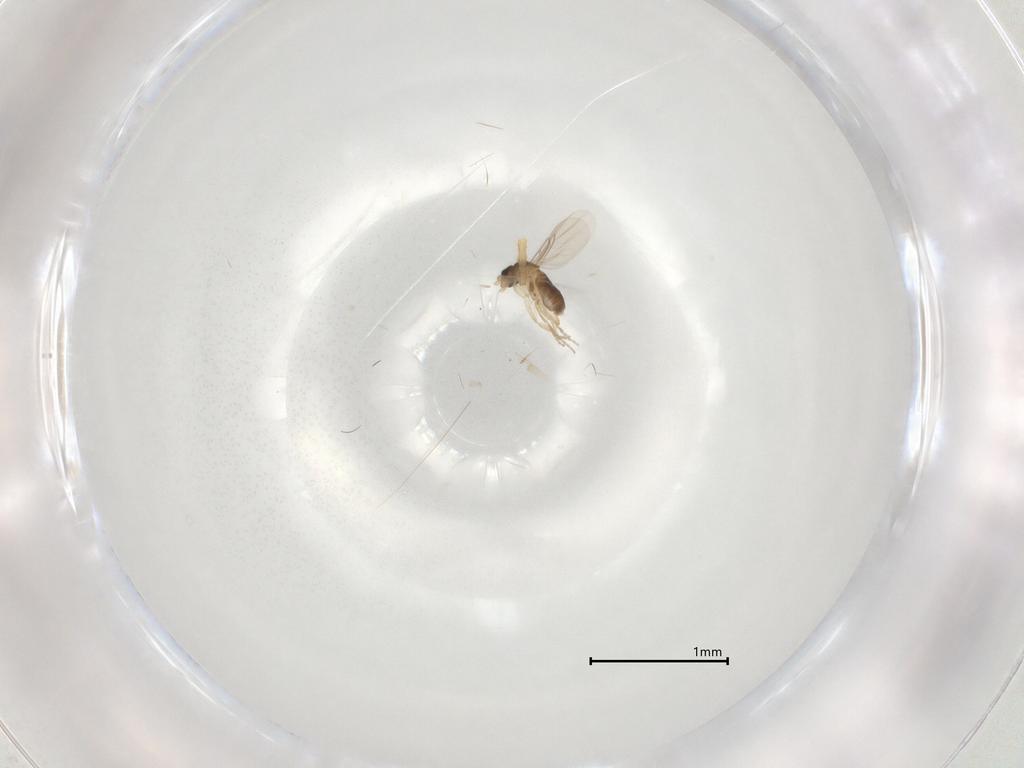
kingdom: Animalia
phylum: Arthropoda
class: Insecta
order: Diptera
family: Phoridae
